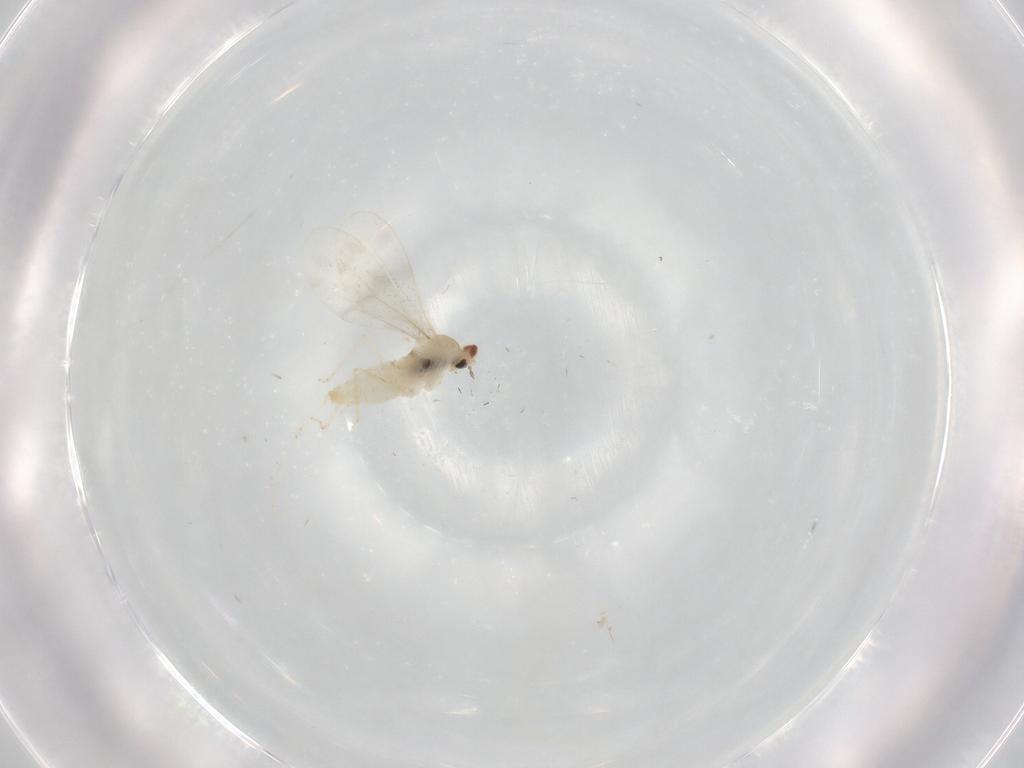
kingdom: Animalia
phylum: Arthropoda
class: Insecta
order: Diptera
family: Cecidomyiidae
